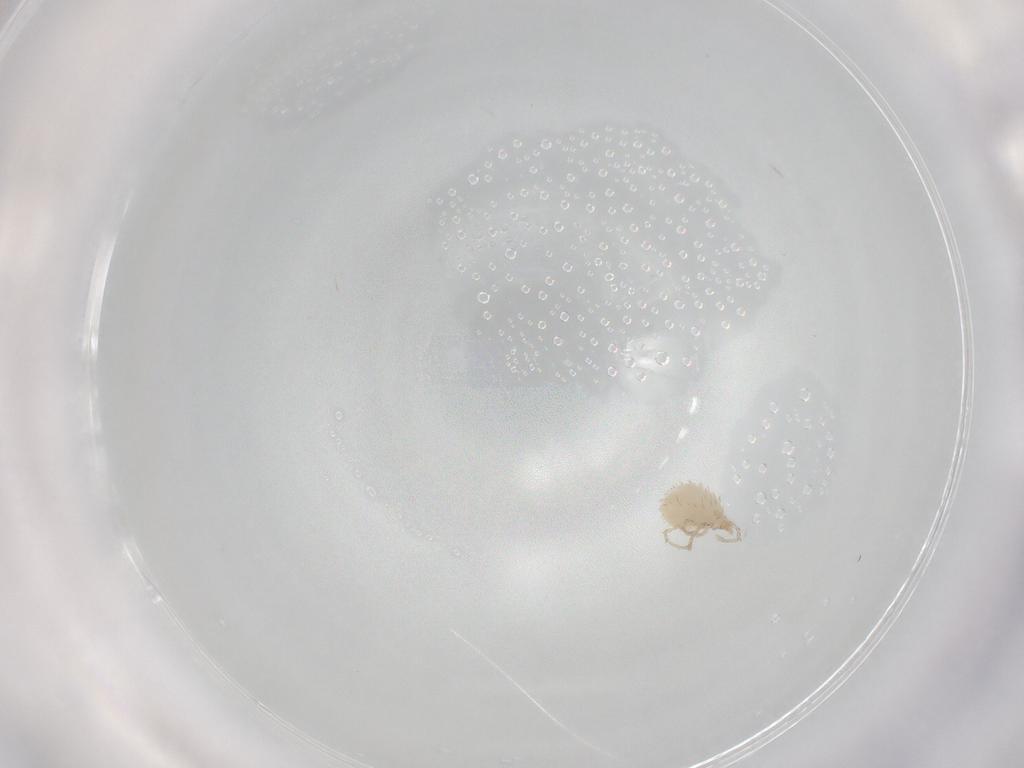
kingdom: Animalia
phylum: Arthropoda
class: Arachnida
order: Trombidiformes
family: Erythraeidae
